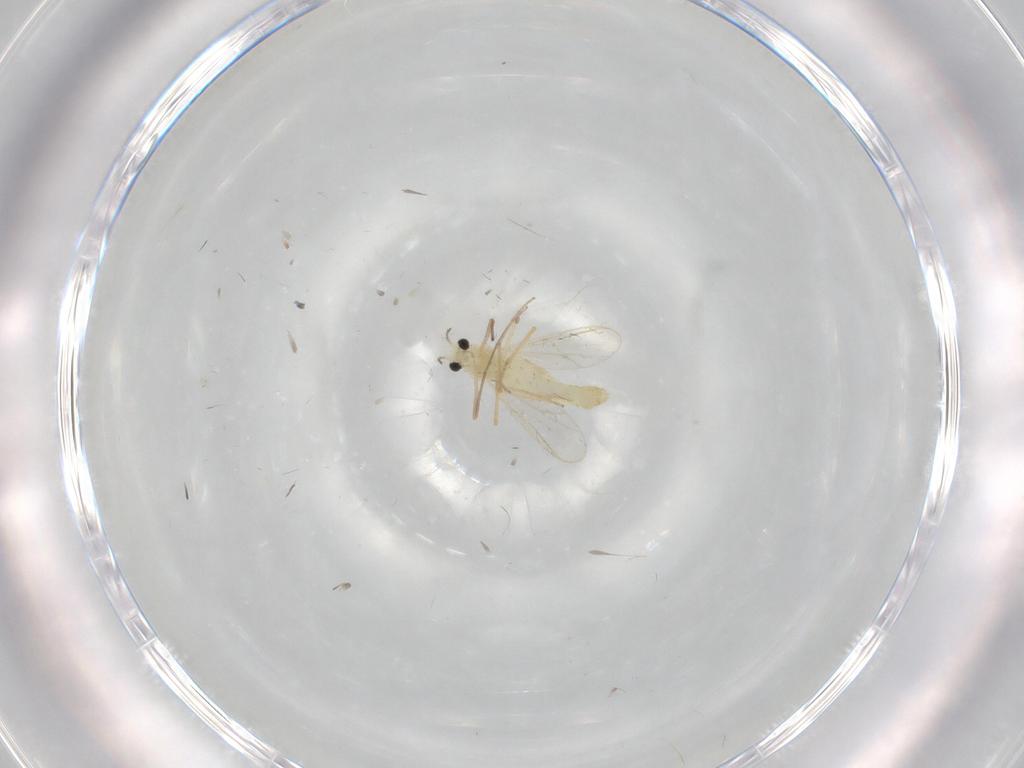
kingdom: Animalia
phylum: Arthropoda
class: Insecta
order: Diptera
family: Chironomidae
